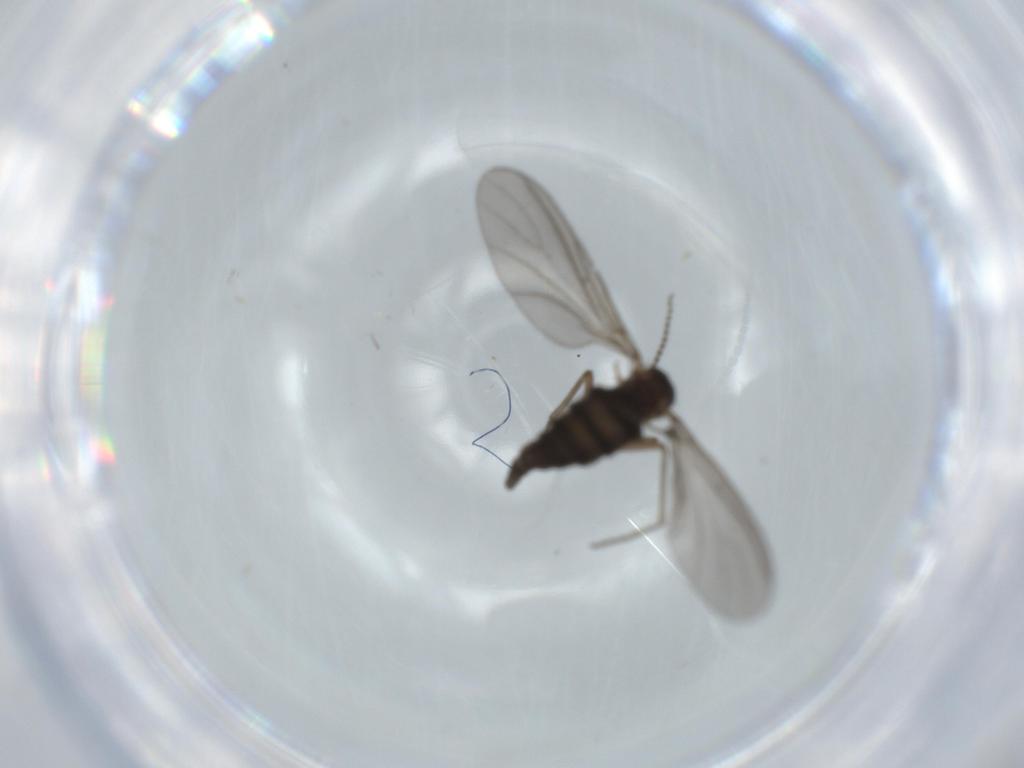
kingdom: Animalia
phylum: Arthropoda
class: Insecta
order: Diptera
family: Sciaridae
